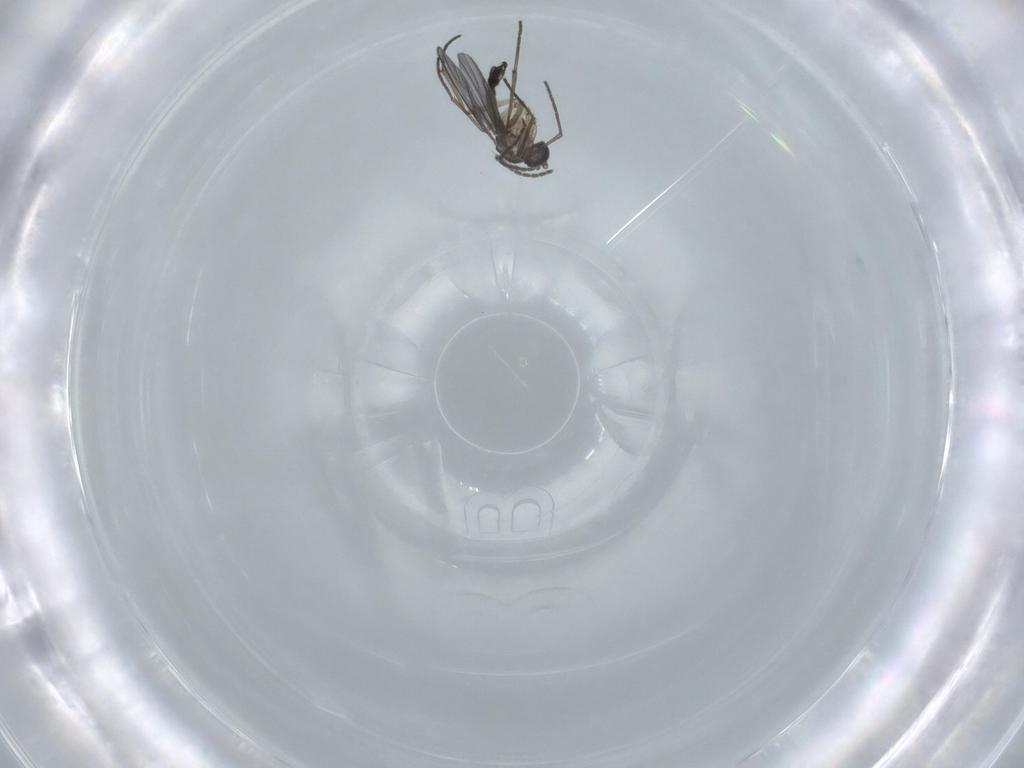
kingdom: Animalia
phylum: Arthropoda
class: Insecta
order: Diptera
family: Sciaridae
